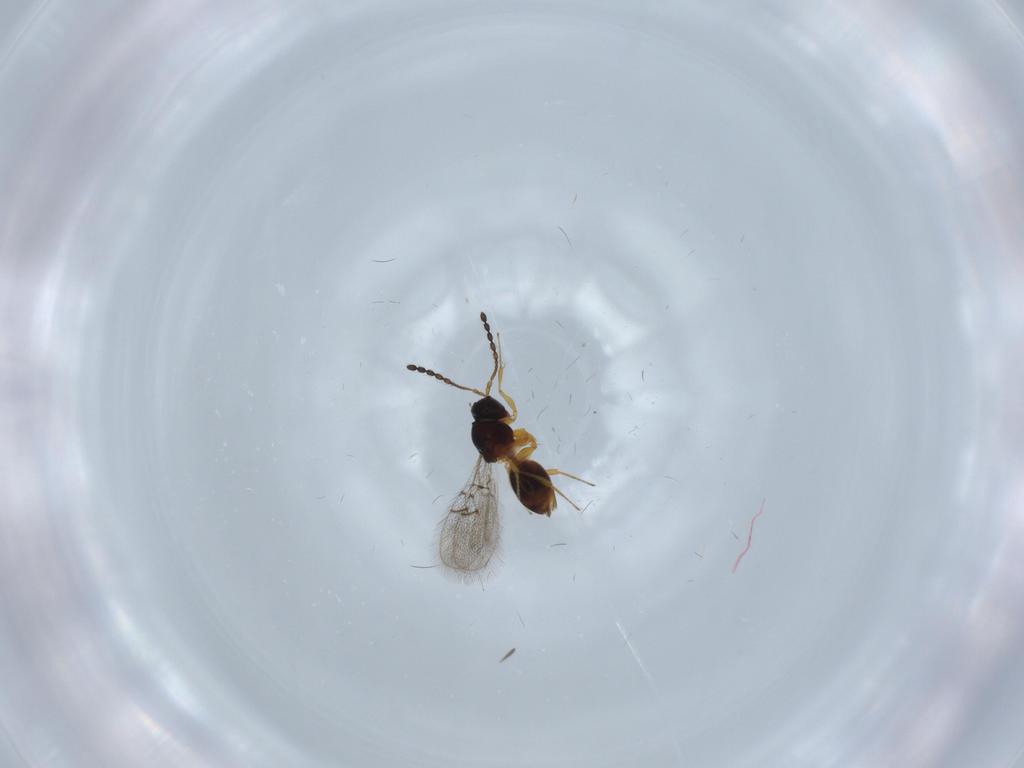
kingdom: Animalia
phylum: Arthropoda
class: Insecta
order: Hymenoptera
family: Figitidae
